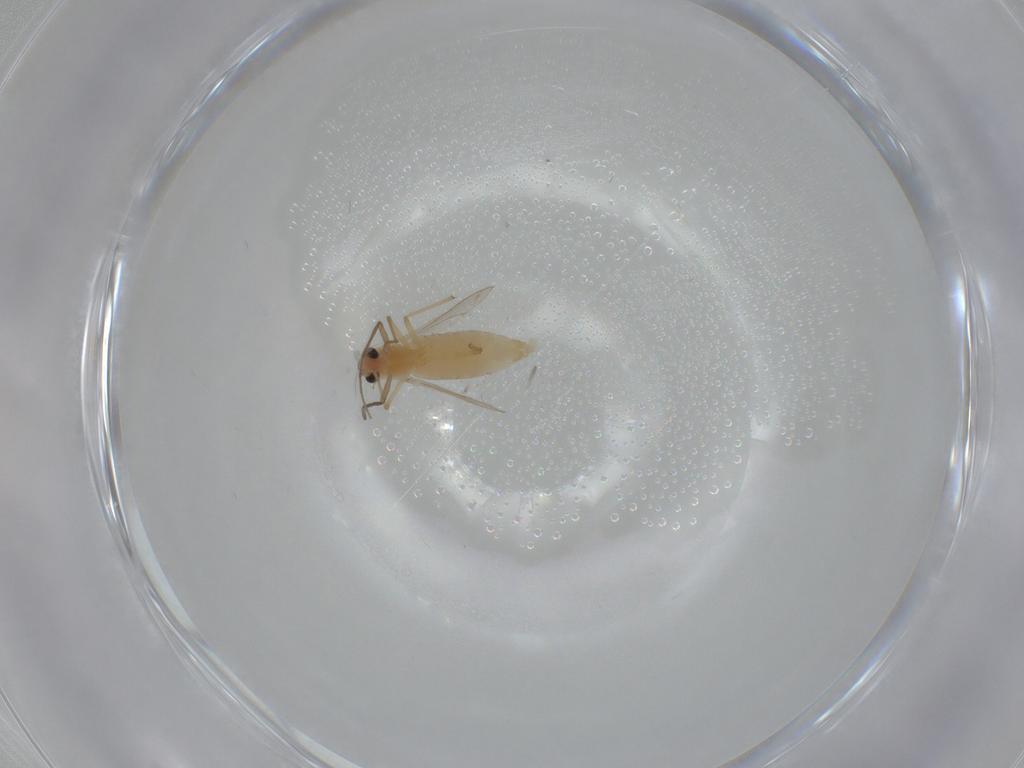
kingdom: Animalia
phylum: Arthropoda
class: Insecta
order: Diptera
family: Chironomidae
